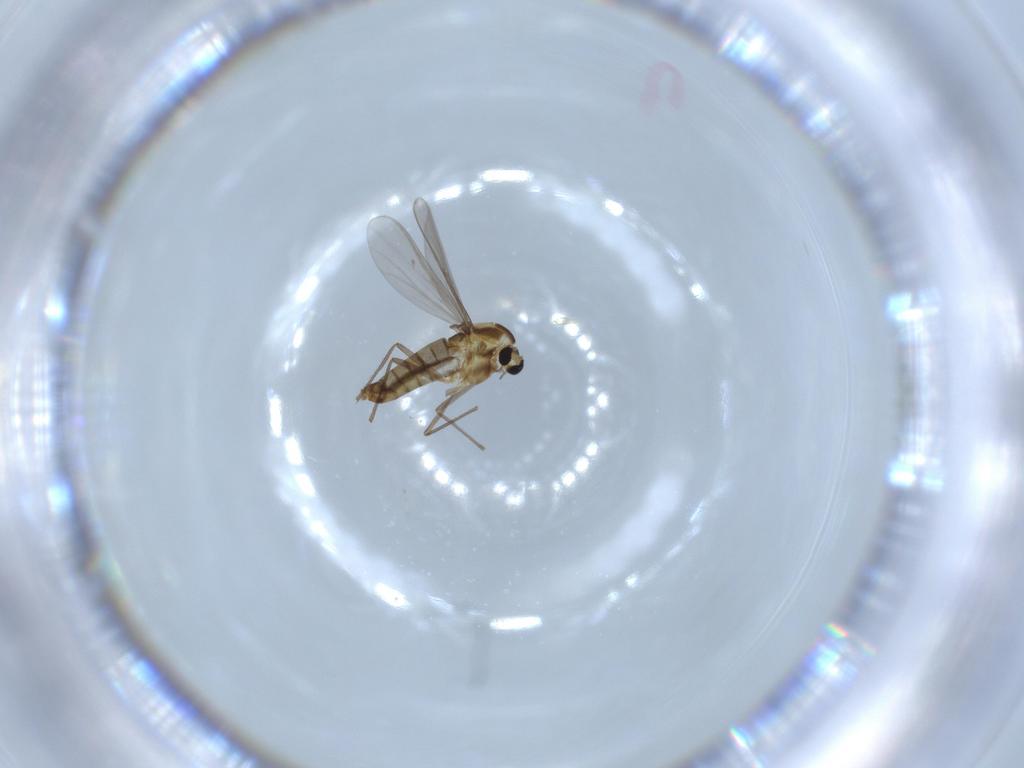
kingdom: Animalia
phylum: Arthropoda
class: Insecta
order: Diptera
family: Chironomidae
